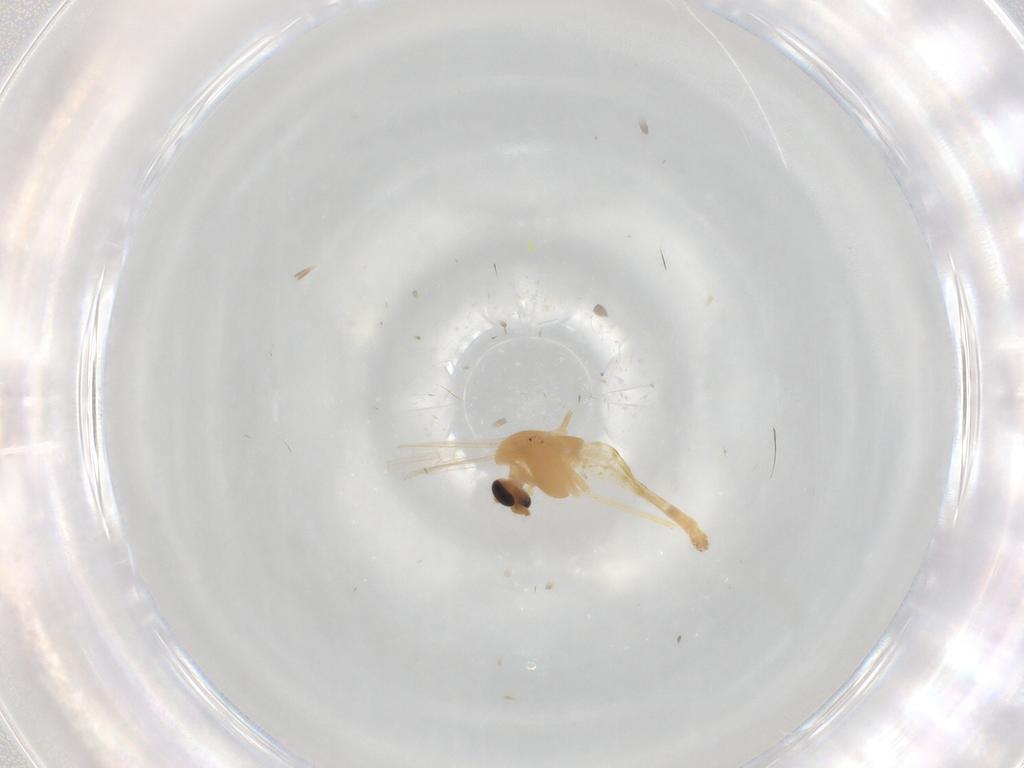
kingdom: Animalia
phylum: Arthropoda
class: Insecta
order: Diptera
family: Chironomidae
